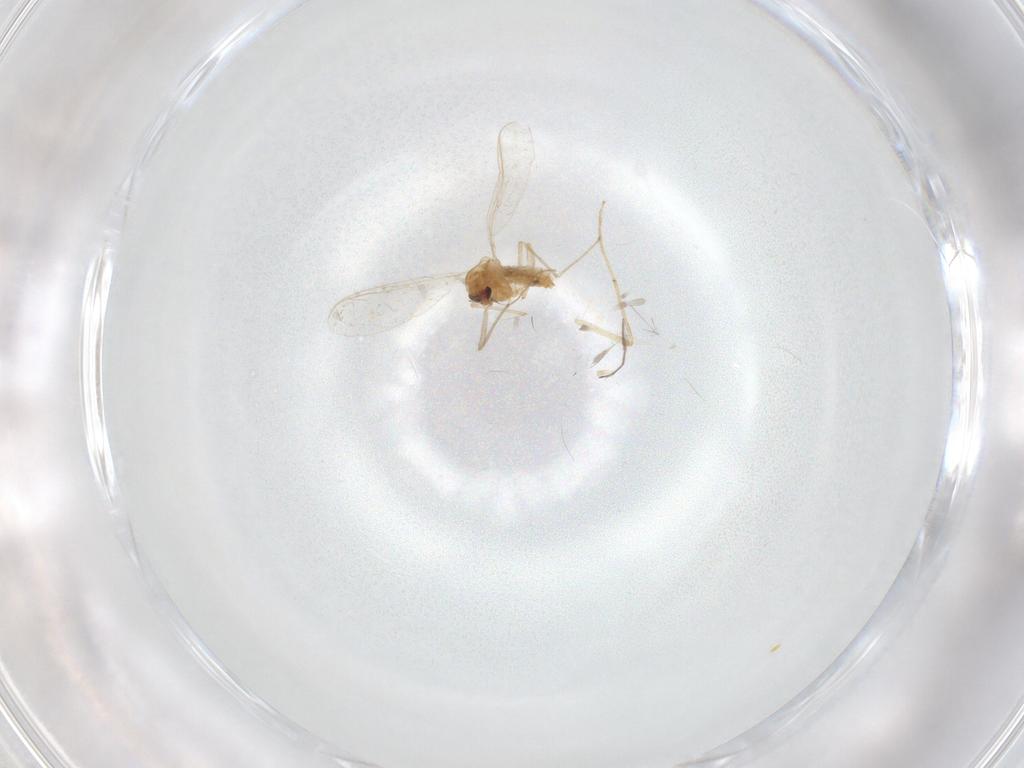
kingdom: Animalia
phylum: Arthropoda
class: Insecta
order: Diptera
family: Chironomidae
